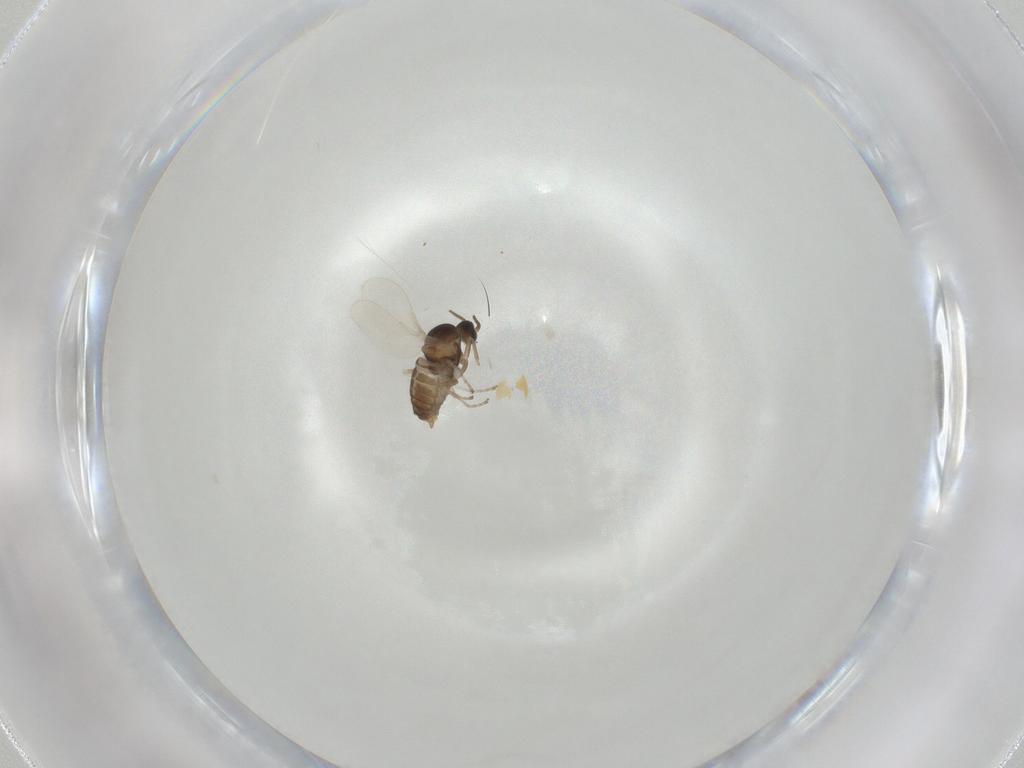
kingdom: Animalia
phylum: Arthropoda
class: Insecta
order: Diptera
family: Cecidomyiidae
